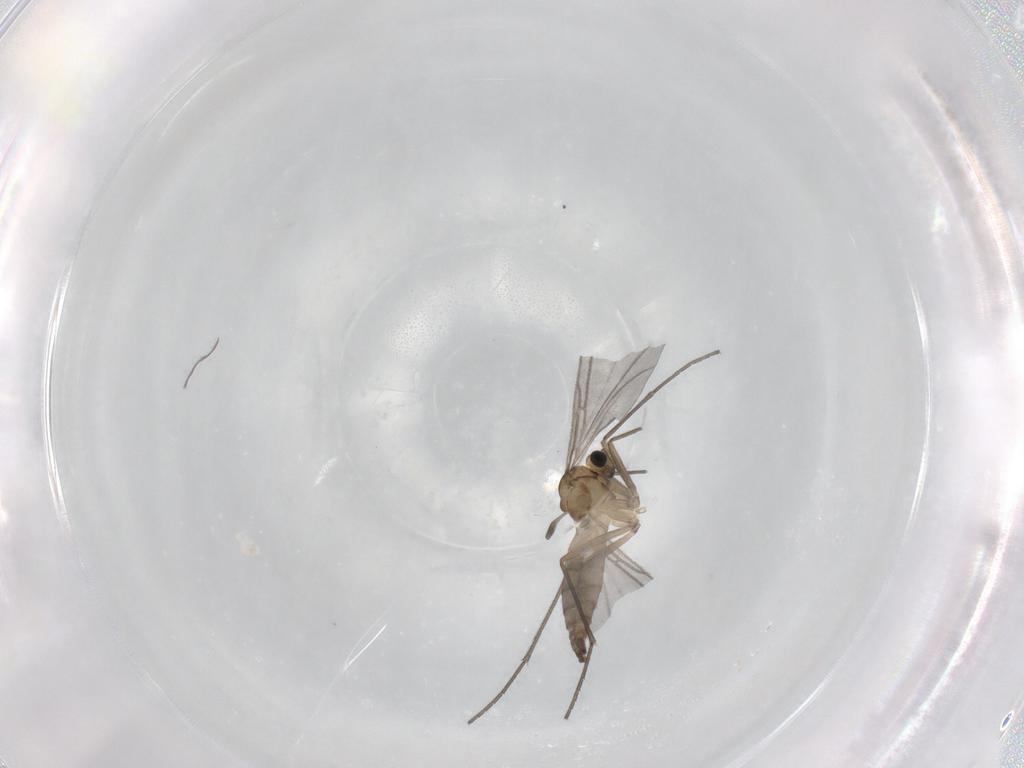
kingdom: Animalia
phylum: Arthropoda
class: Insecta
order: Diptera
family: Sciaridae
